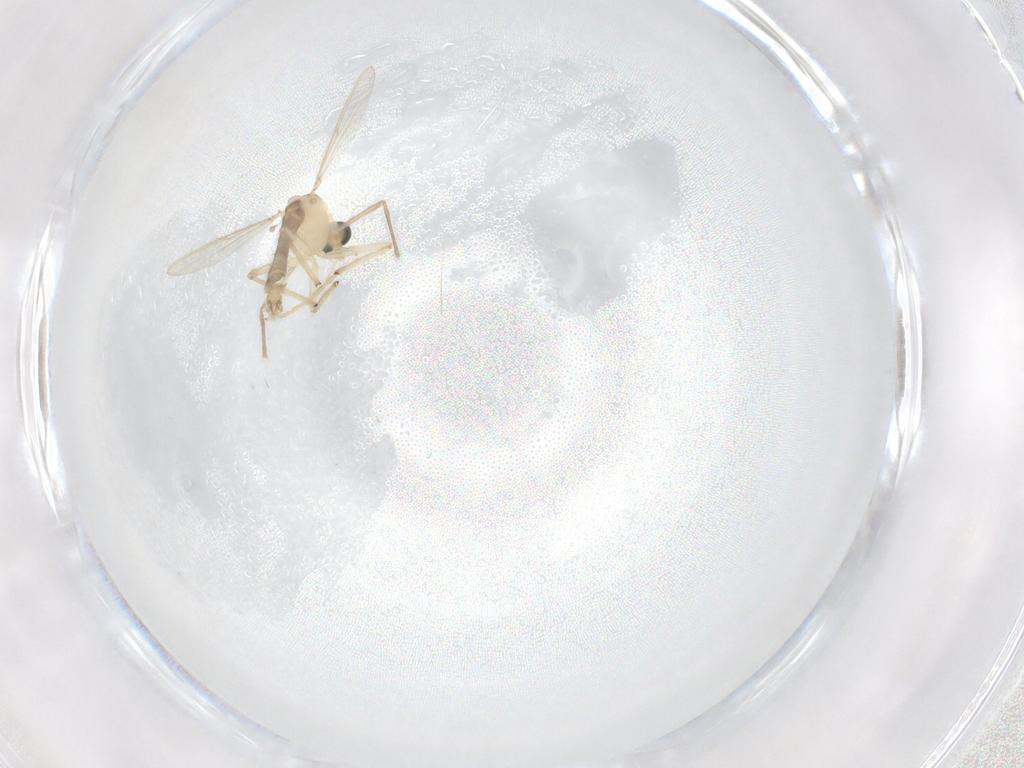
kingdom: Animalia
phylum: Arthropoda
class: Insecta
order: Diptera
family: Chironomidae
